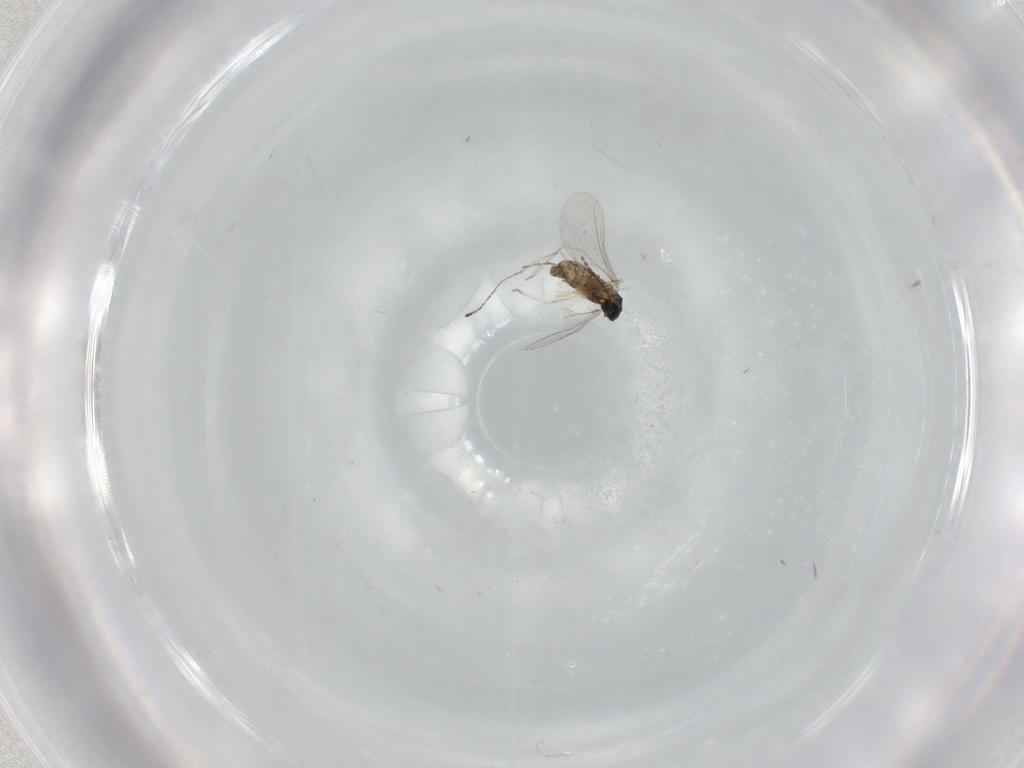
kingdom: Animalia
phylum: Arthropoda
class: Insecta
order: Diptera
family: Cecidomyiidae
